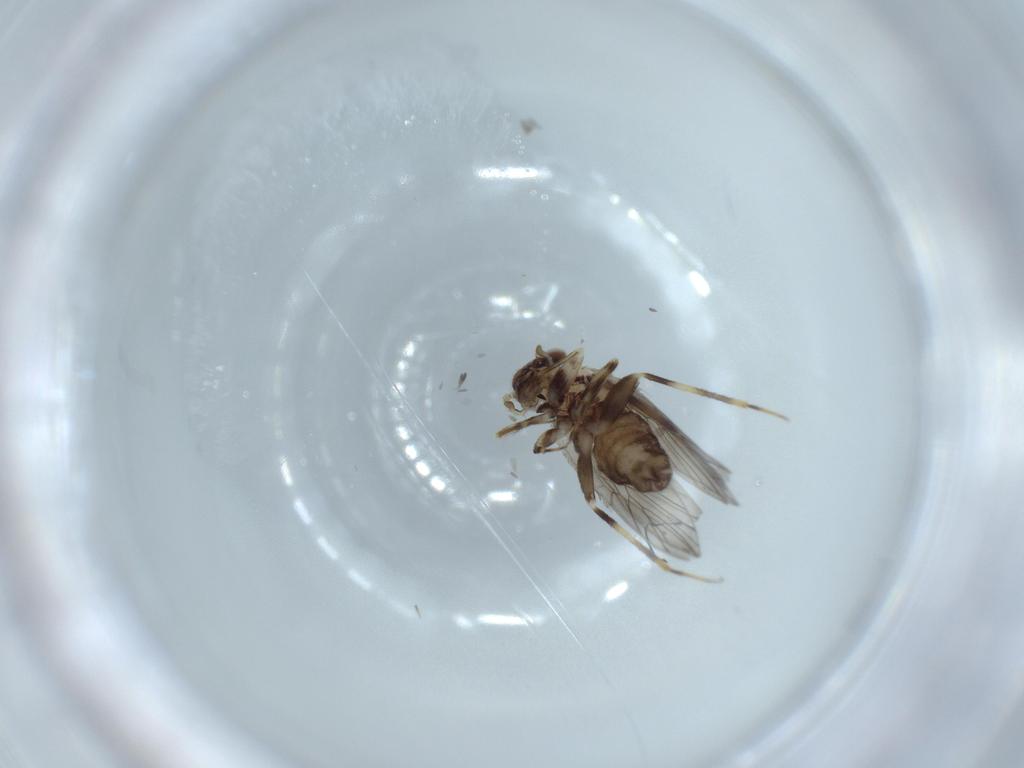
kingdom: Animalia
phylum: Arthropoda
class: Insecta
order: Psocodea
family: Lepidopsocidae
